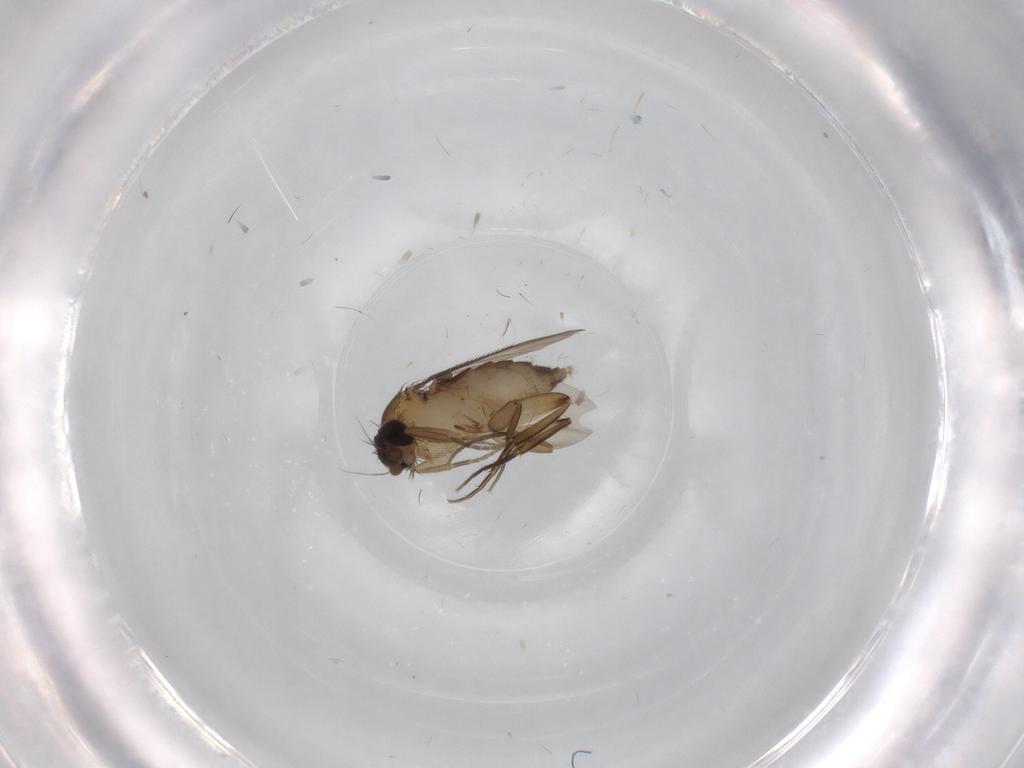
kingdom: Animalia
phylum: Arthropoda
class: Insecta
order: Diptera
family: Phoridae
